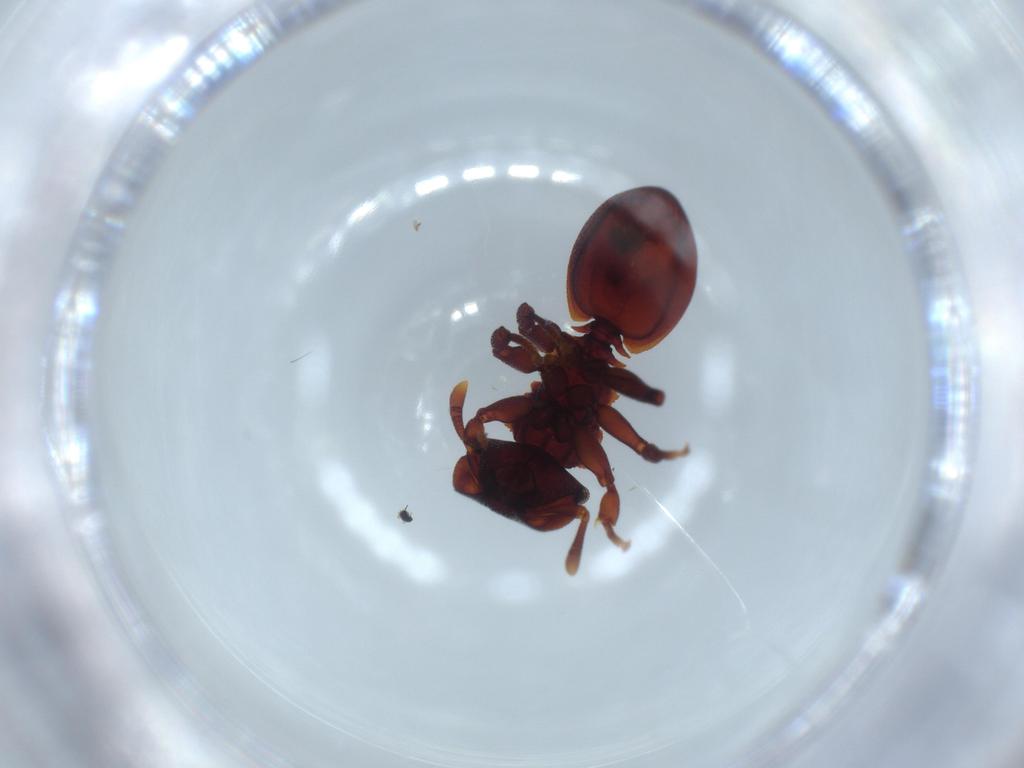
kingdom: Animalia
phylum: Arthropoda
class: Insecta
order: Hymenoptera
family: Formicidae
